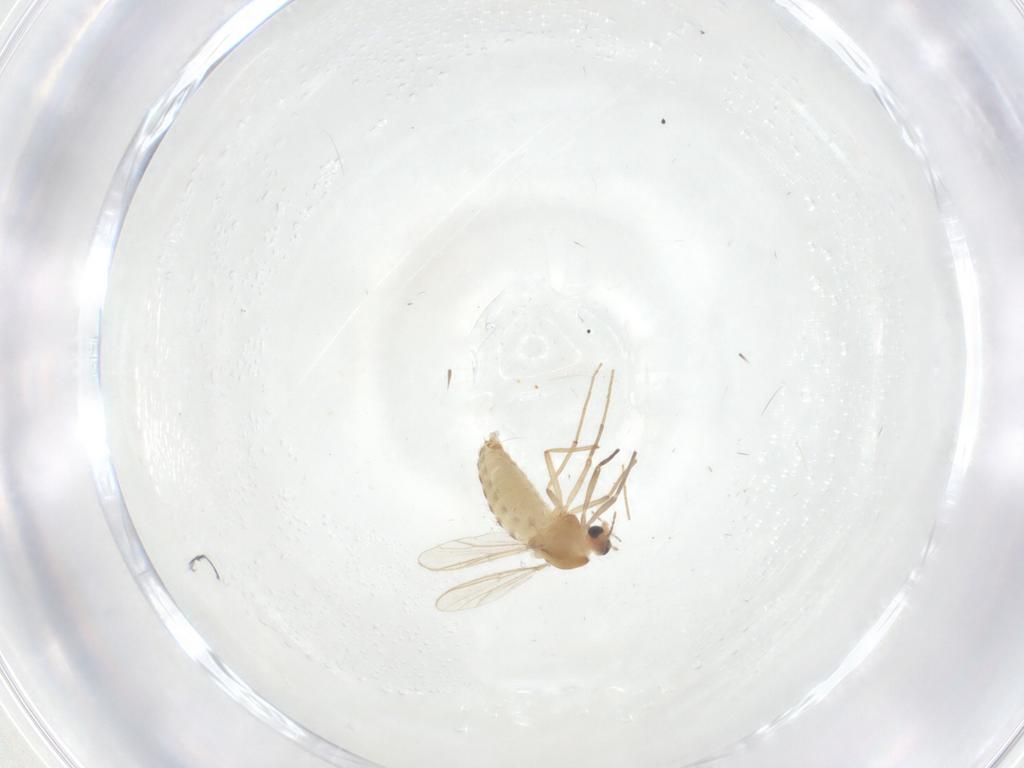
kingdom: Animalia
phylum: Arthropoda
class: Insecta
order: Diptera
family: Chironomidae
